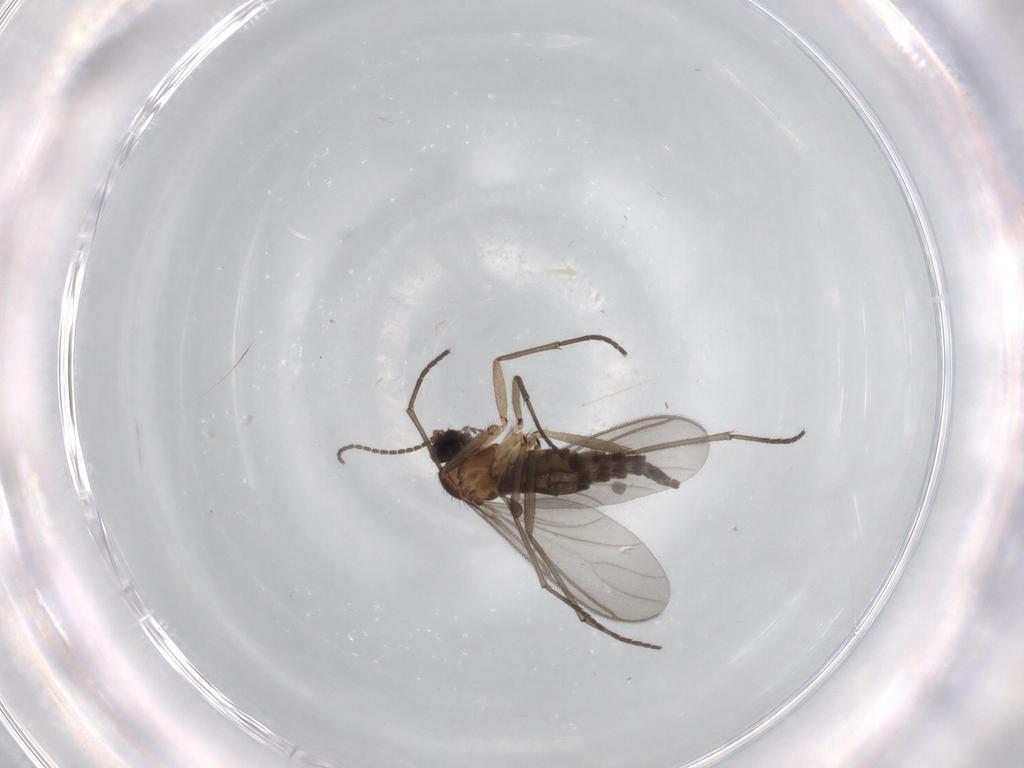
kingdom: Animalia
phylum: Arthropoda
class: Insecta
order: Diptera
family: Sciaridae
